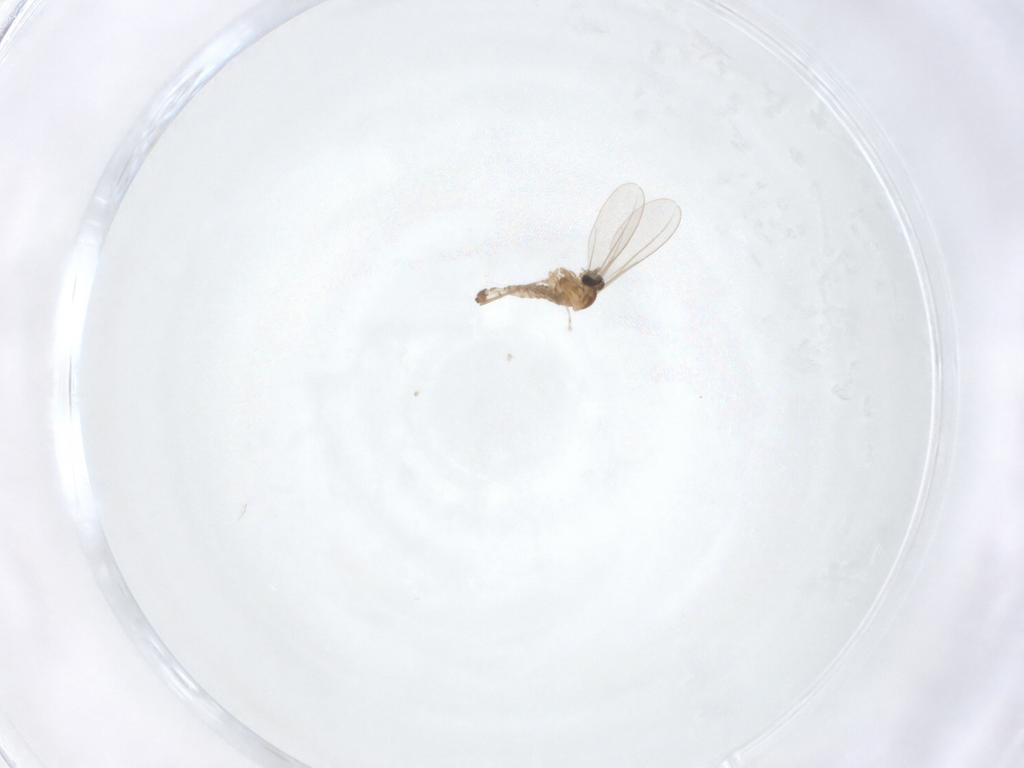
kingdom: Animalia
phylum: Arthropoda
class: Insecta
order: Diptera
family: Cecidomyiidae
